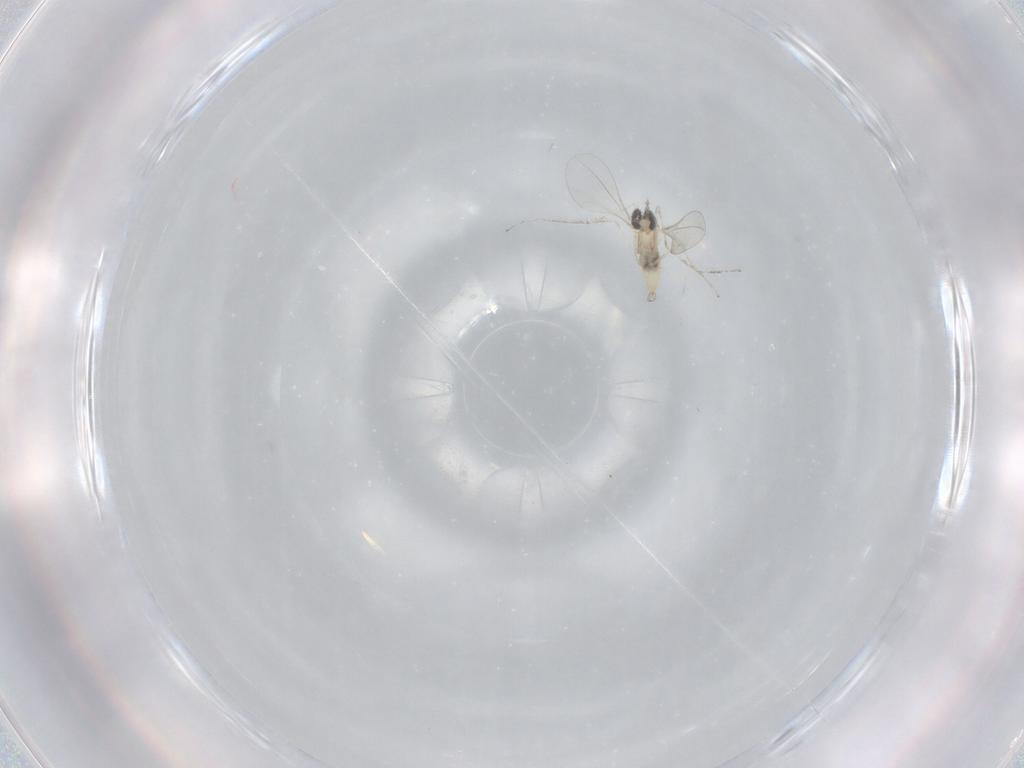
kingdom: Animalia
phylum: Arthropoda
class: Insecta
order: Diptera
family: Cecidomyiidae
